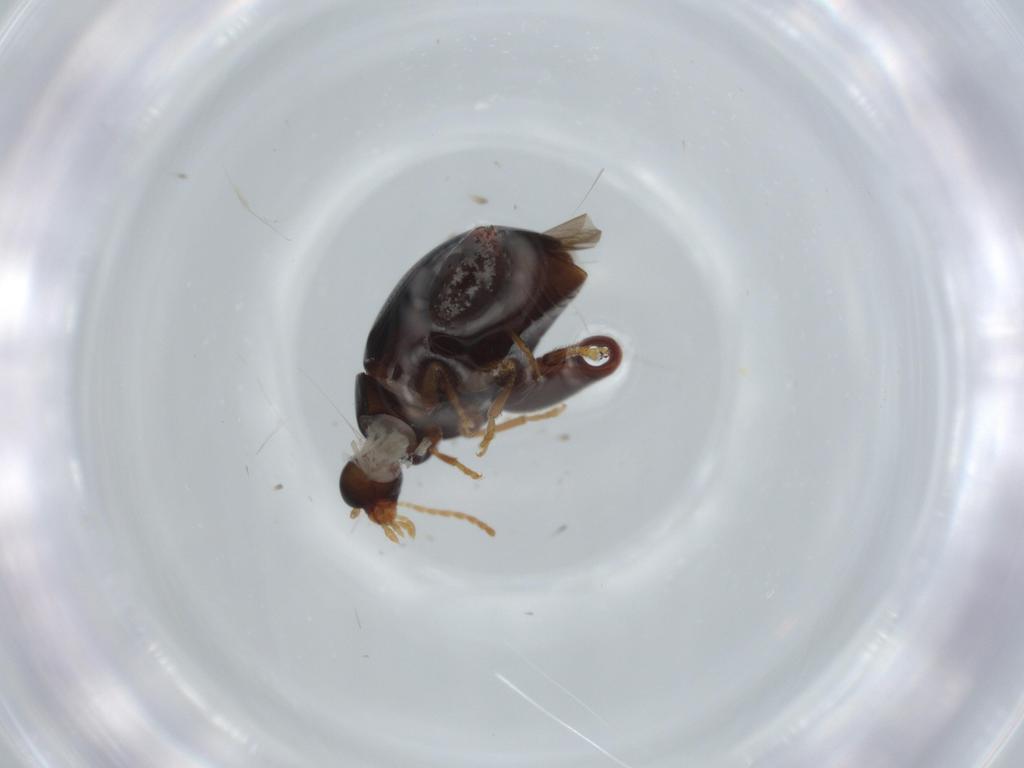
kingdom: Animalia
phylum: Arthropoda
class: Insecta
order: Coleoptera
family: Chrysomelidae
